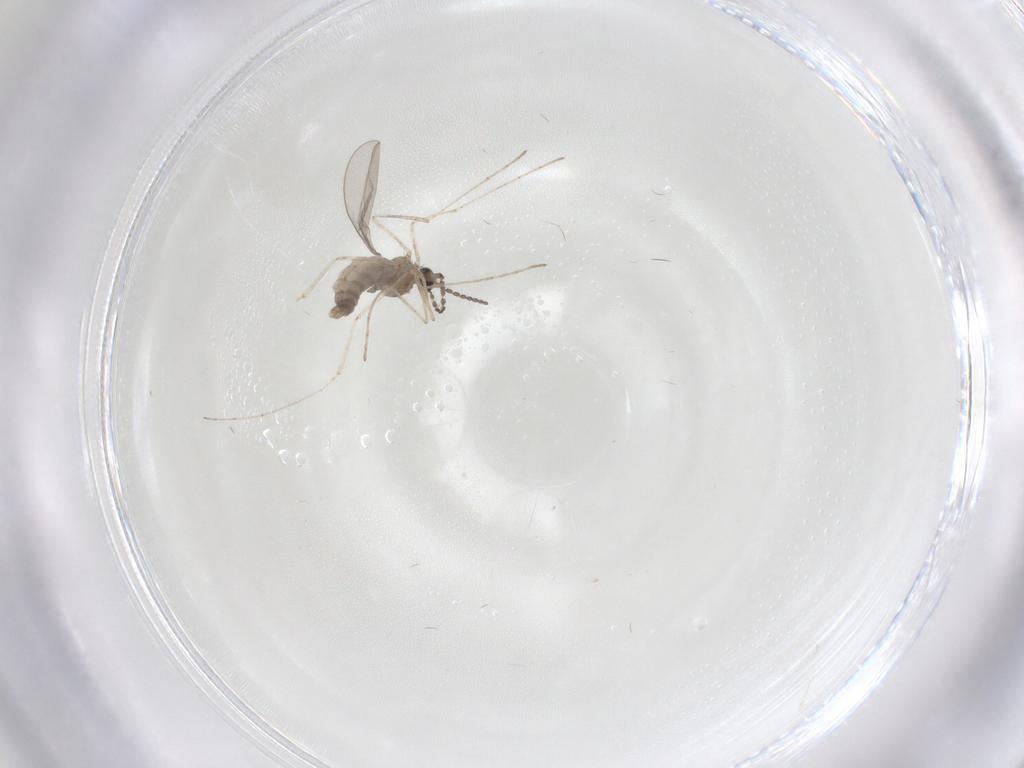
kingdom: Animalia
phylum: Arthropoda
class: Insecta
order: Diptera
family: Cecidomyiidae
